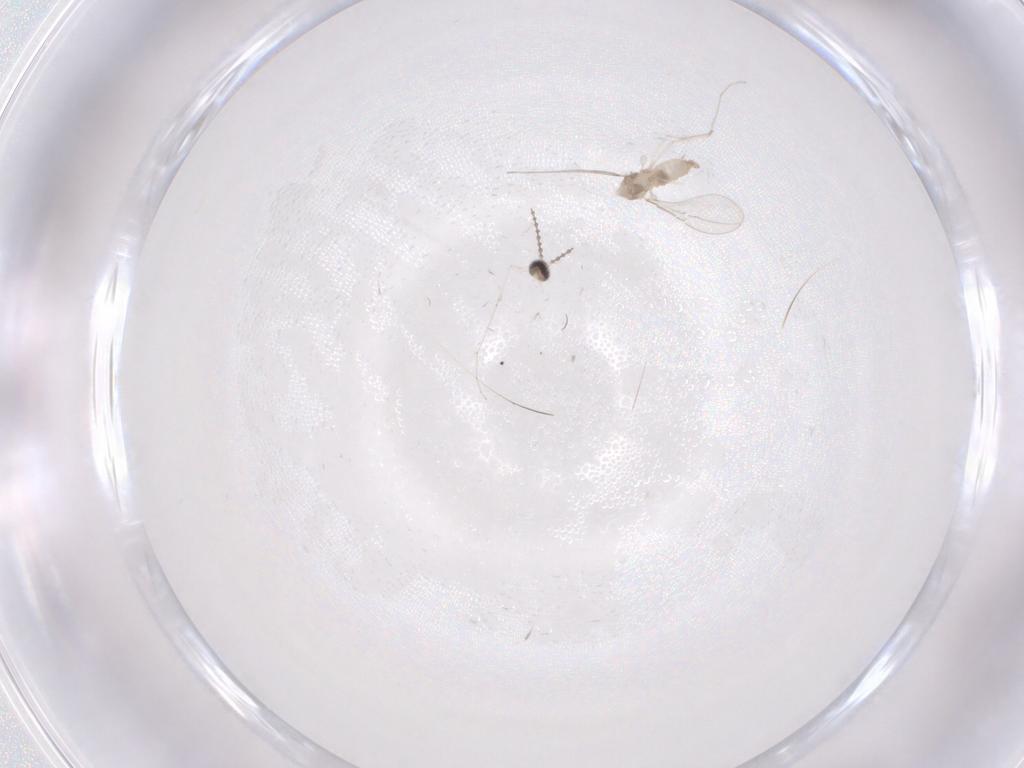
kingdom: Animalia
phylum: Arthropoda
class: Insecta
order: Diptera
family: Cecidomyiidae
